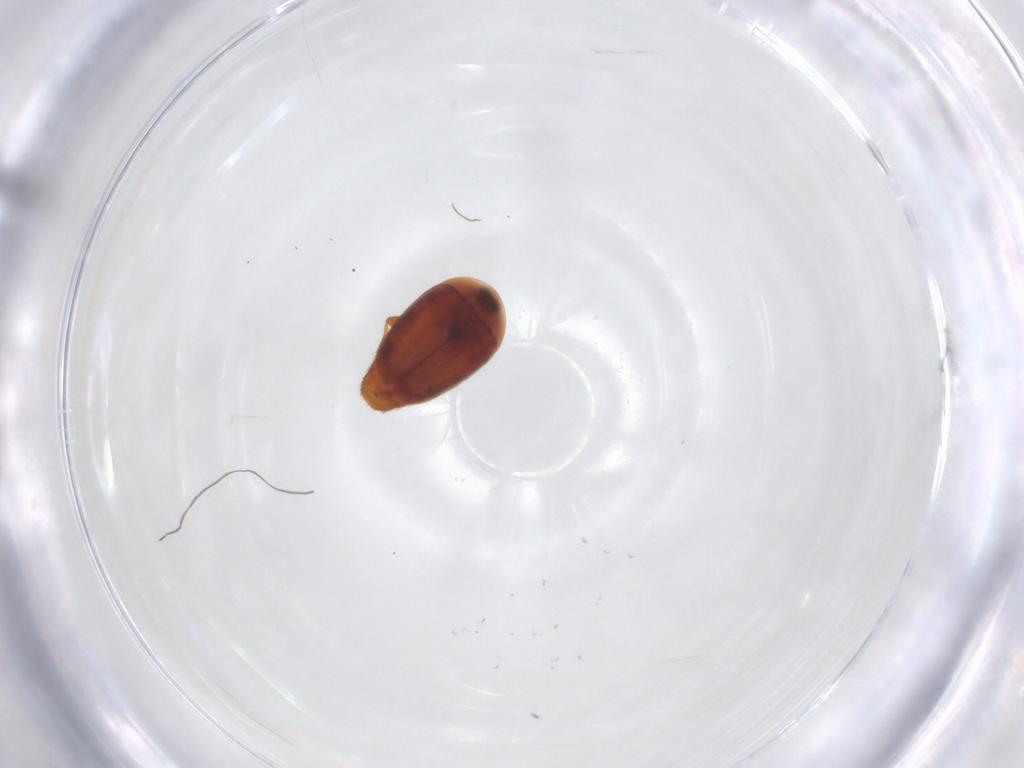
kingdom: Animalia
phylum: Arthropoda
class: Insecta
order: Coleoptera
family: Corylophidae
